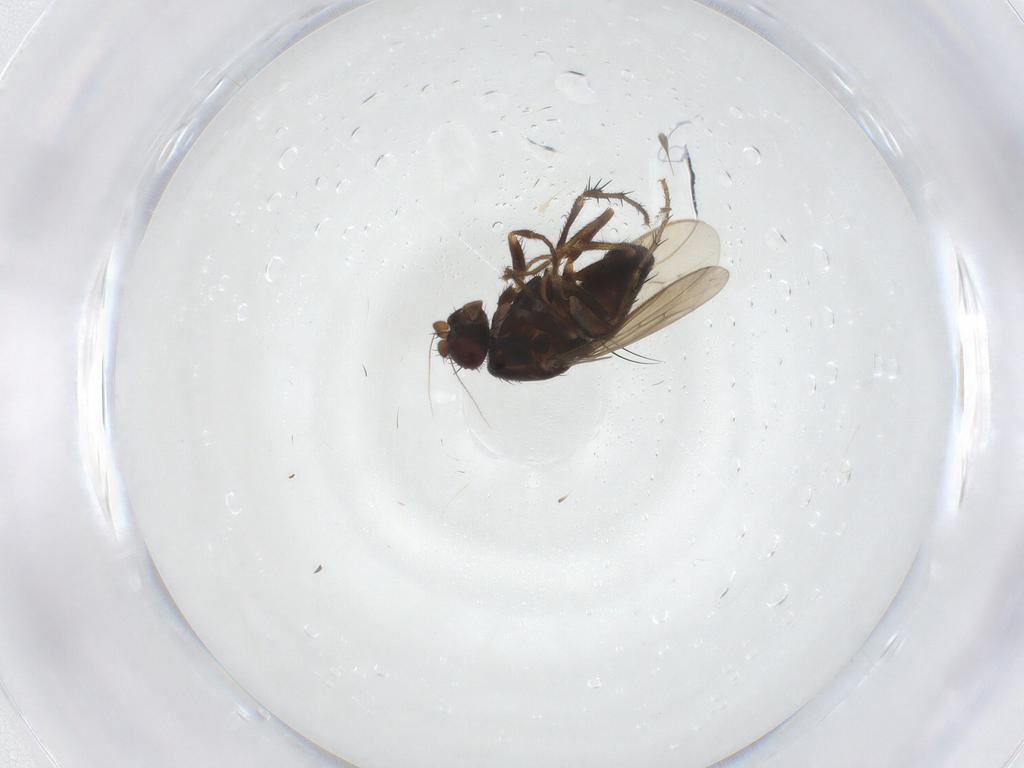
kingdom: Animalia
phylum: Arthropoda
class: Insecta
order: Diptera
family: Sphaeroceridae
